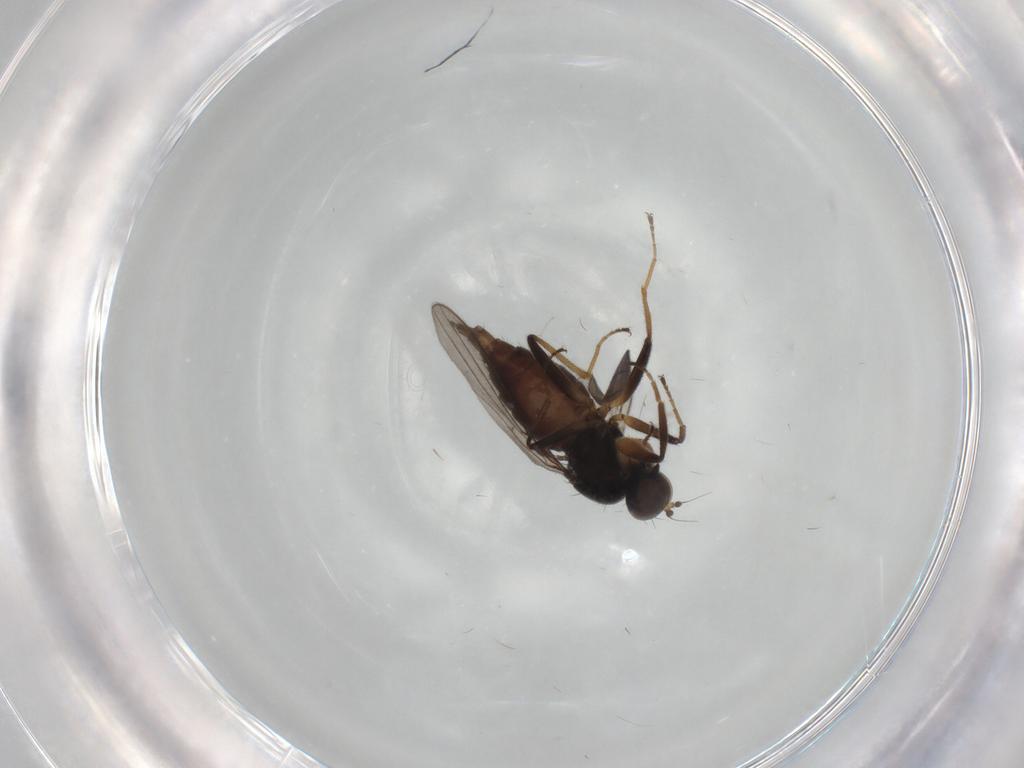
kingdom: Animalia
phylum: Arthropoda
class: Insecta
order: Diptera
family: Hybotidae
